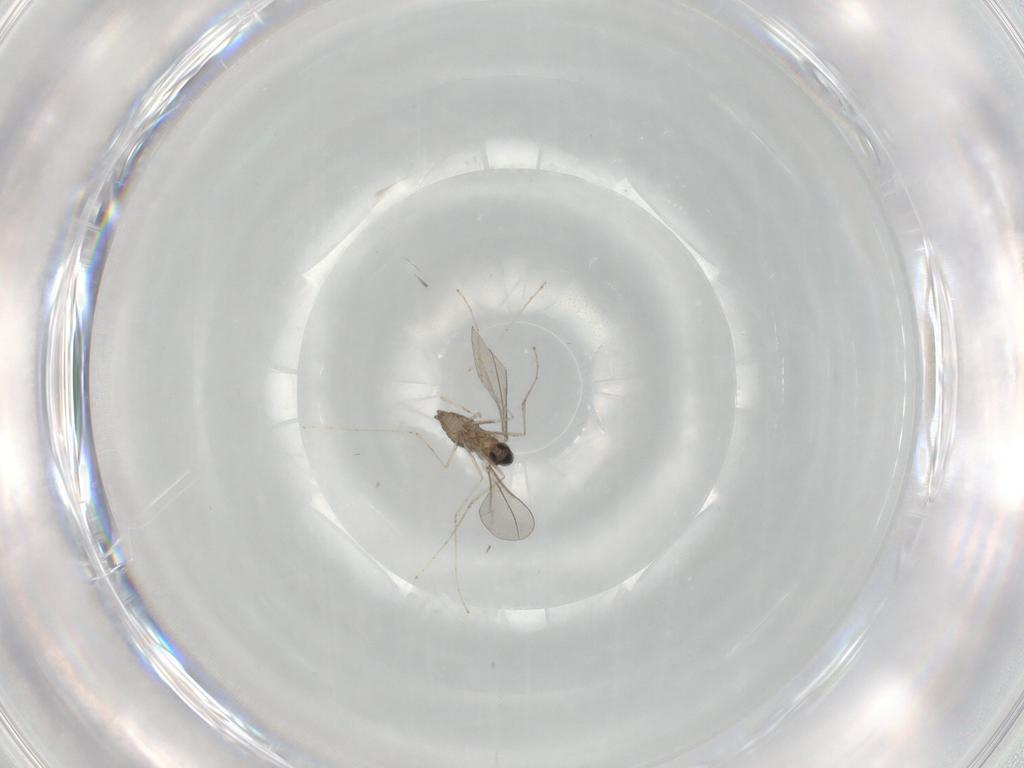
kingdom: Animalia
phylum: Arthropoda
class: Insecta
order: Diptera
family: Cecidomyiidae
